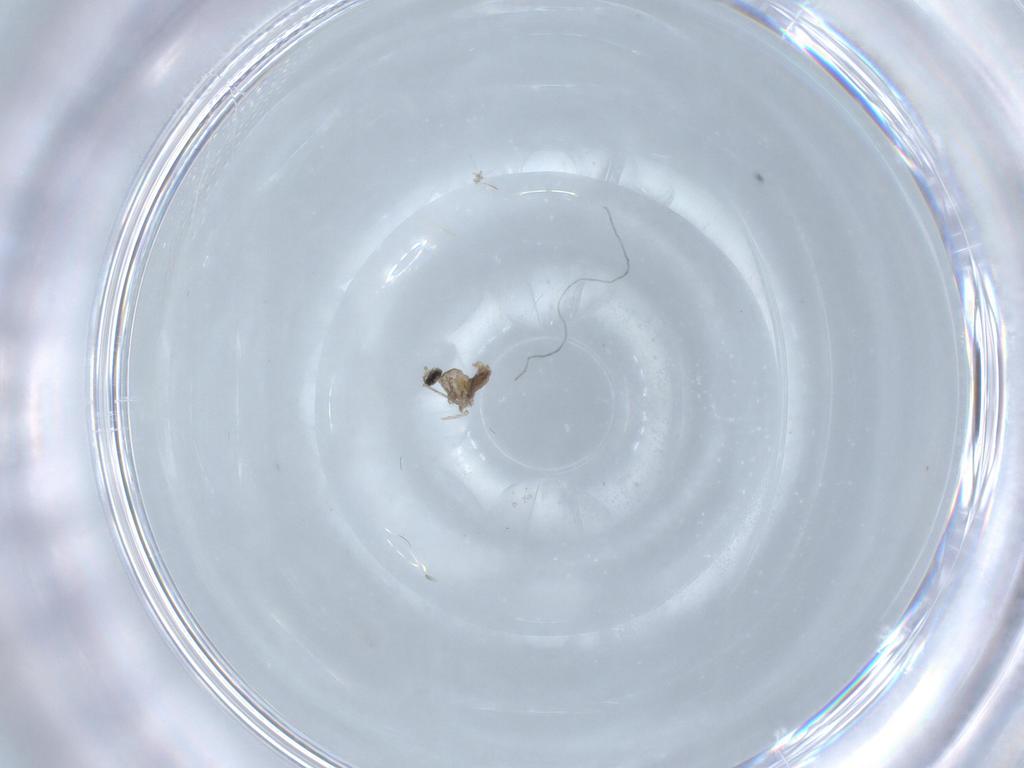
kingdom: Animalia
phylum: Arthropoda
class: Insecta
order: Diptera
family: Cecidomyiidae
